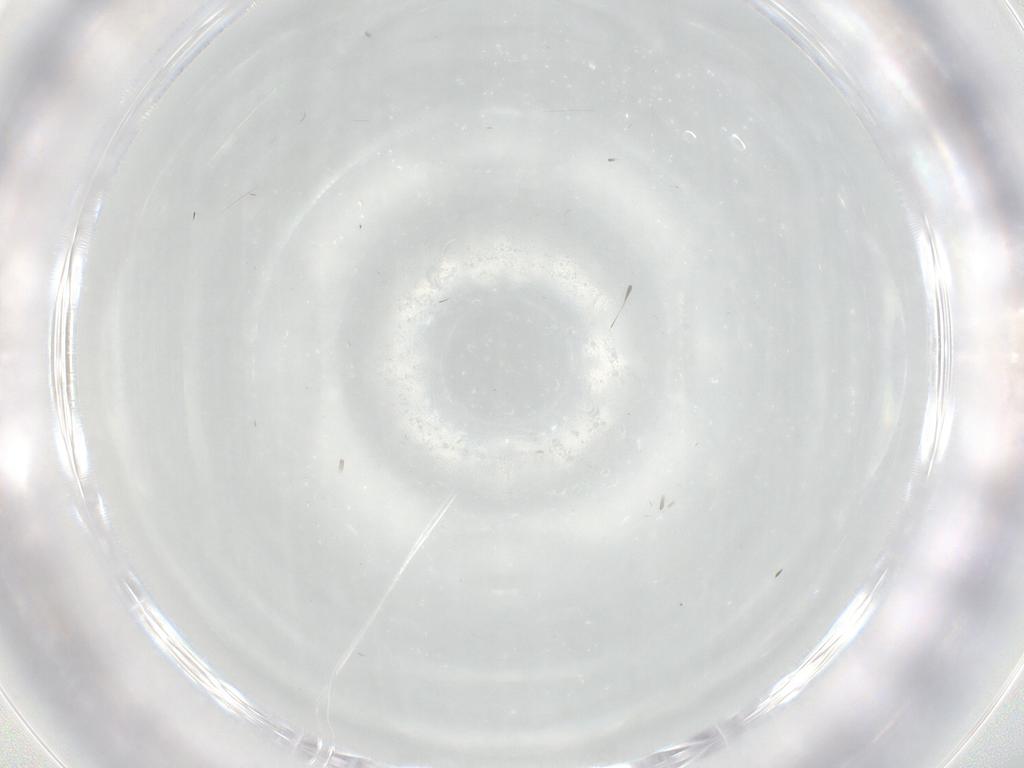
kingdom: Animalia
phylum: Arthropoda
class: Insecta
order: Diptera
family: Cecidomyiidae
